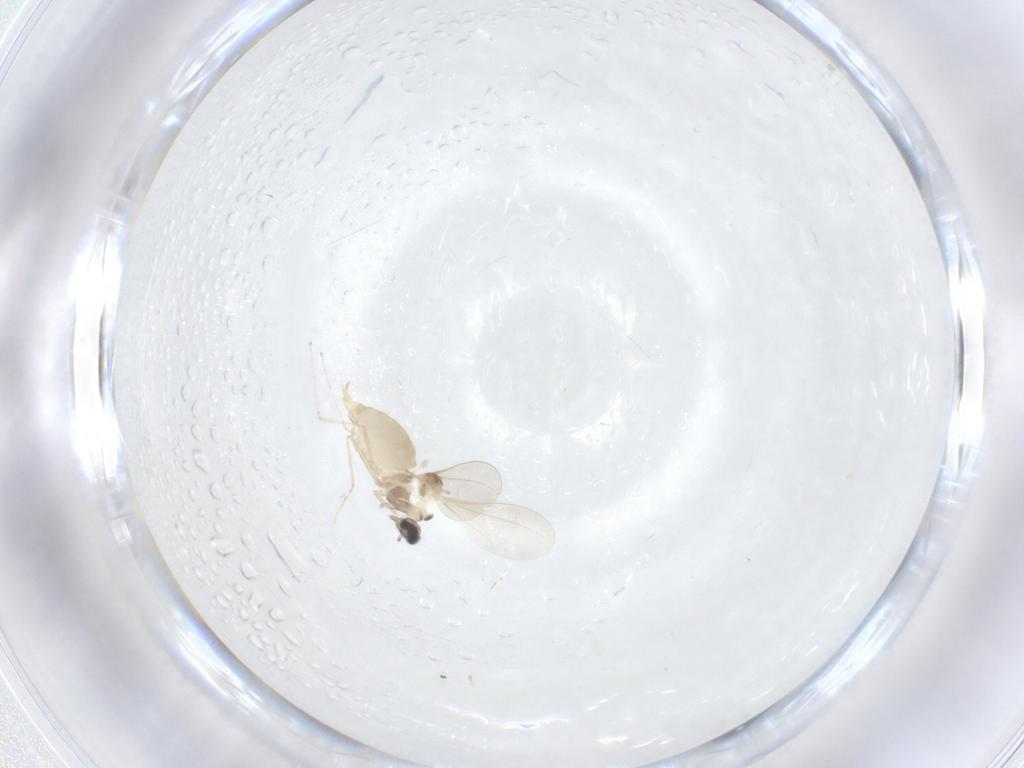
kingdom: Animalia
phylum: Arthropoda
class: Insecta
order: Diptera
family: Cecidomyiidae
